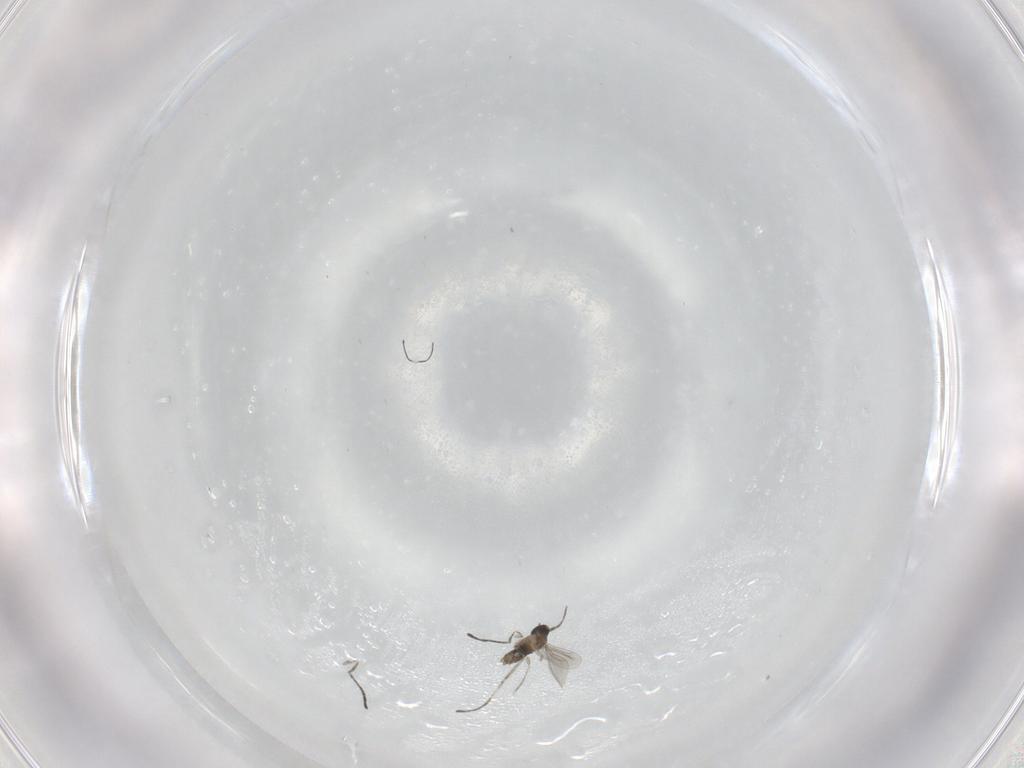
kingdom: Animalia
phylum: Arthropoda
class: Insecta
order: Diptera
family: Cecidomyiidae
